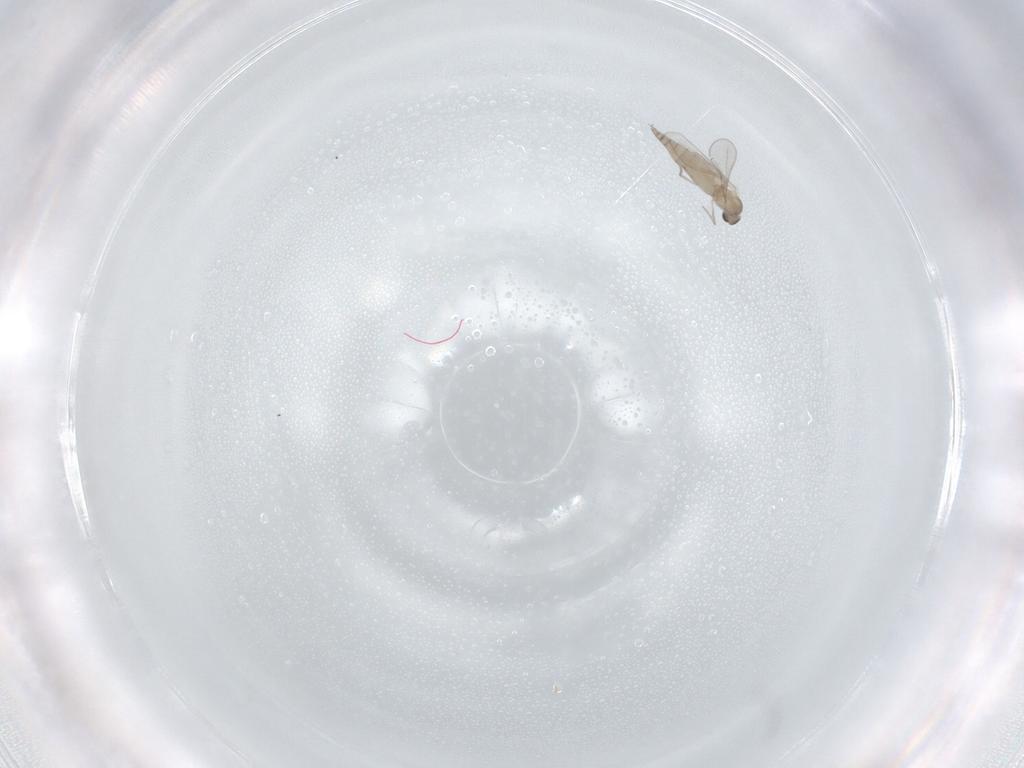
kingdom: Animalia
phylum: Arthropoda
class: Insecta
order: Diptera
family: Cecidomyiidae
